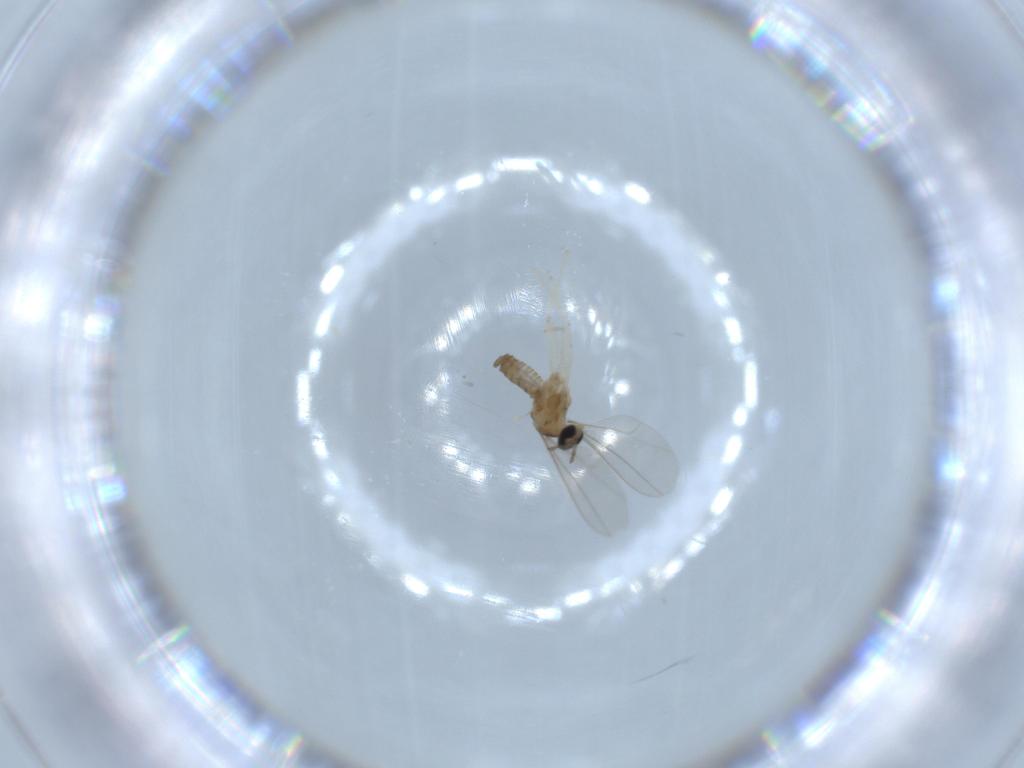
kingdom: Animalia
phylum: Arthropoda
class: Insecta
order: Diptera
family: Cecidomyiidae
